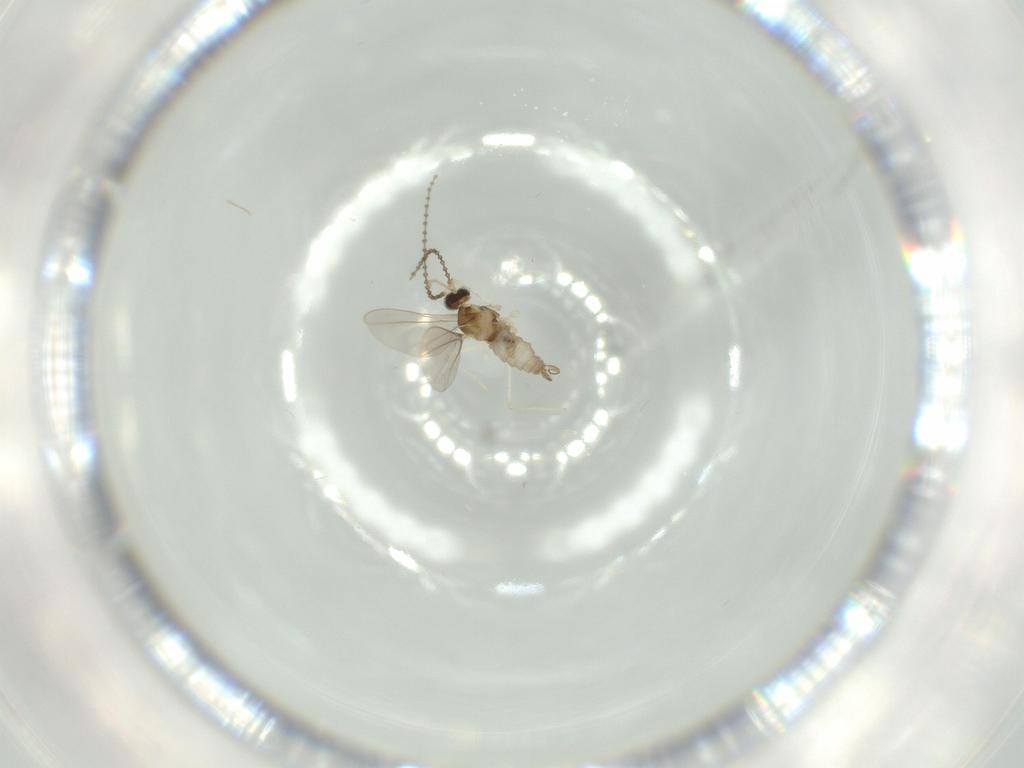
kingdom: Animalia
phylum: Arthropoda
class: Insecta
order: Diptera
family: Cecidomyiidae
